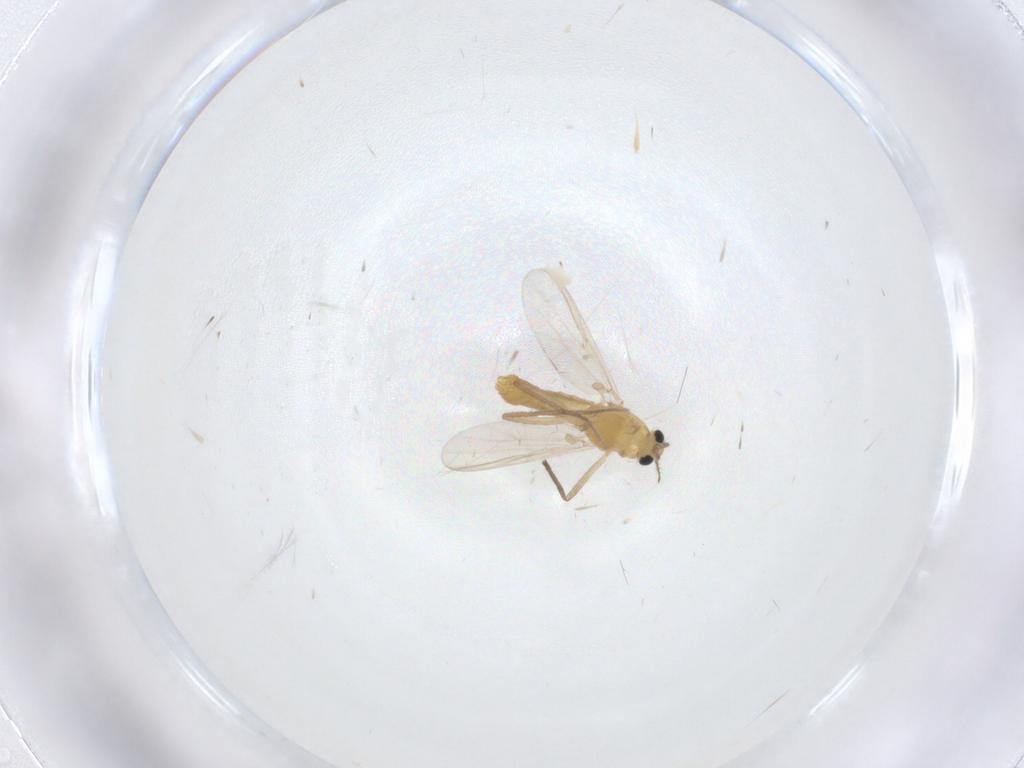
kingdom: Animalia
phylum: Arthropoda
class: Insecta
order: Diptera
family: Chironomidae
